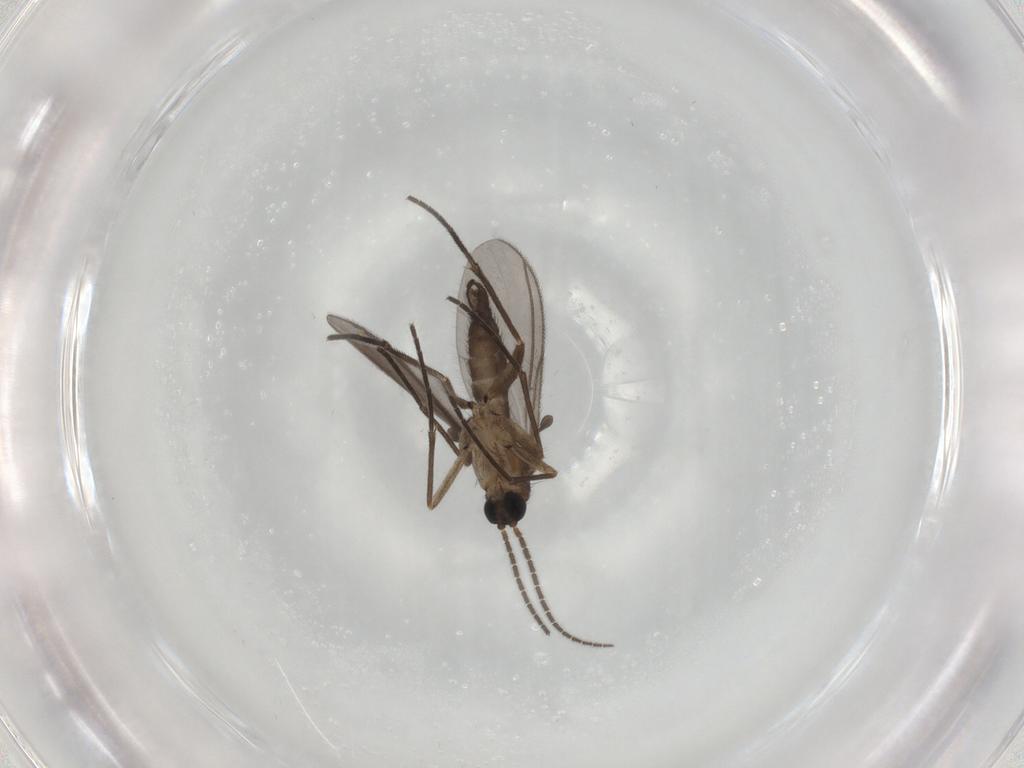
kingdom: Animalia
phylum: Arthropoda
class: Insecta
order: Diptera
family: Sciaridae
